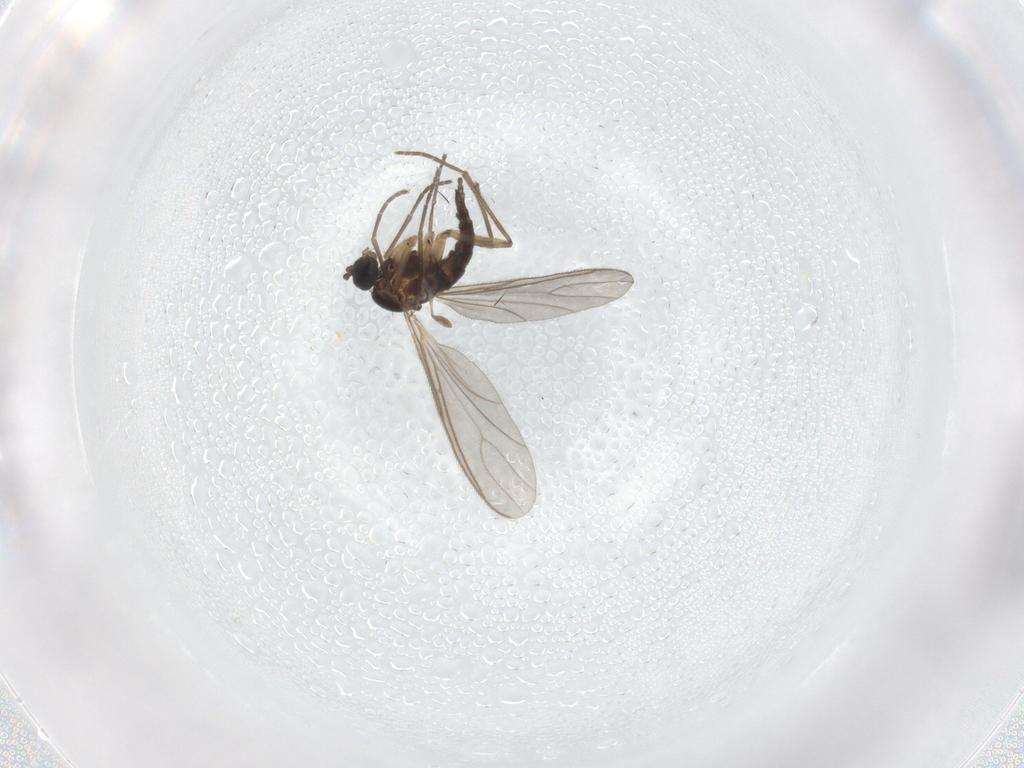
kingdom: Animalia
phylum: Arthropoda
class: Insecta
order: Diptera
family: Sciaridae
